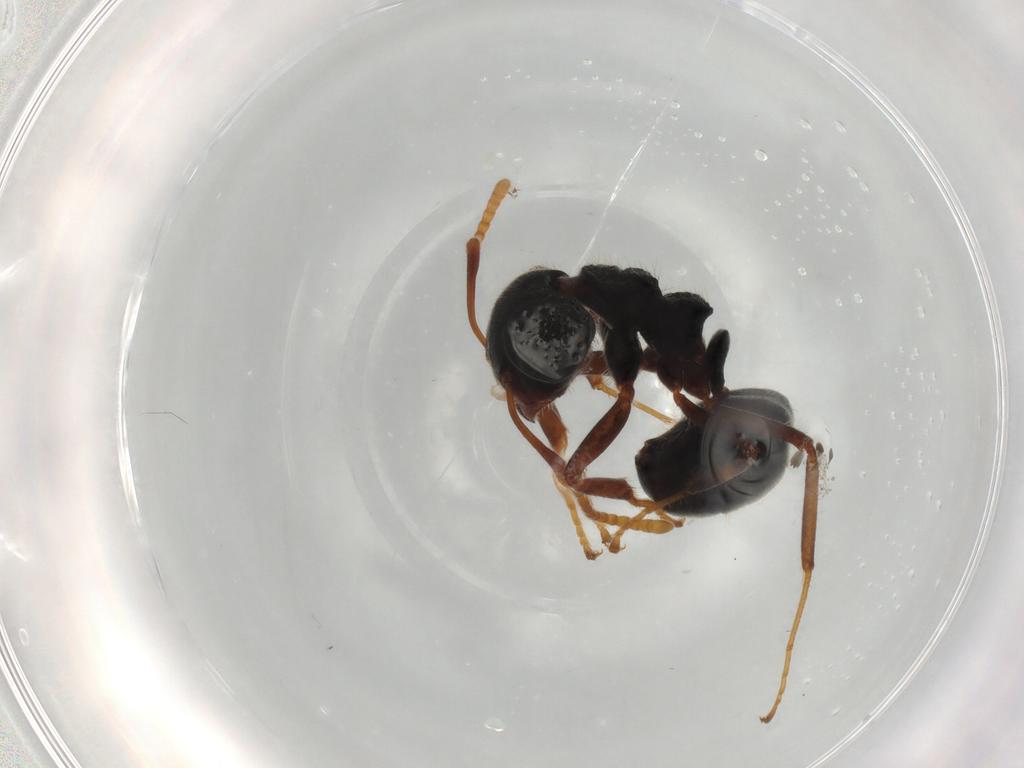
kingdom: Animalia
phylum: Arthropoda
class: Insecta
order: Hymenoptera
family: Formicidae
